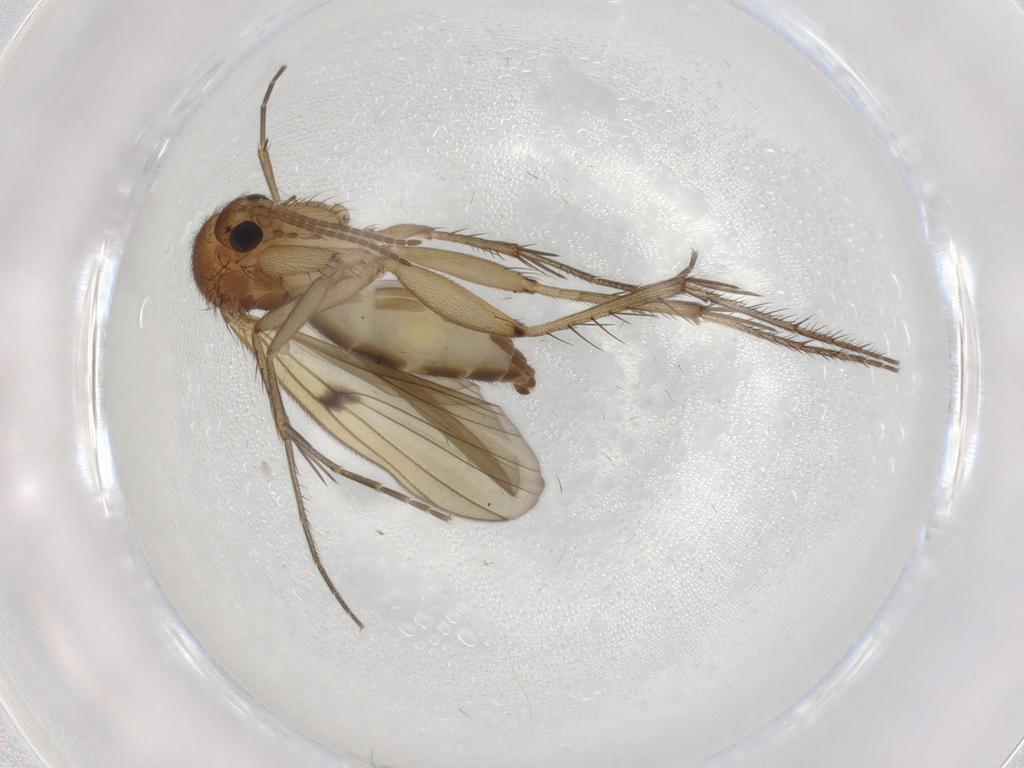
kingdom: Animalia
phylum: Arthropoda
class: Insecta
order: Diptera
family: Mycetophilidae
